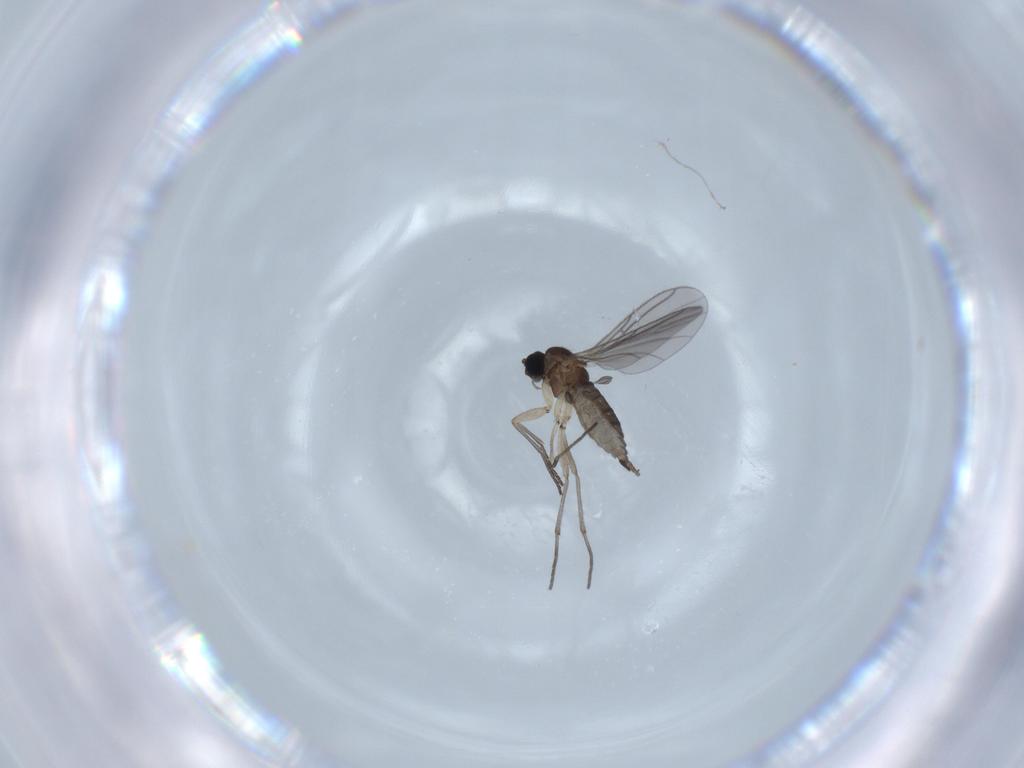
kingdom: Animalia
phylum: Arthropoda
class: Insecta
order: Diptera
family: Sciaridae
